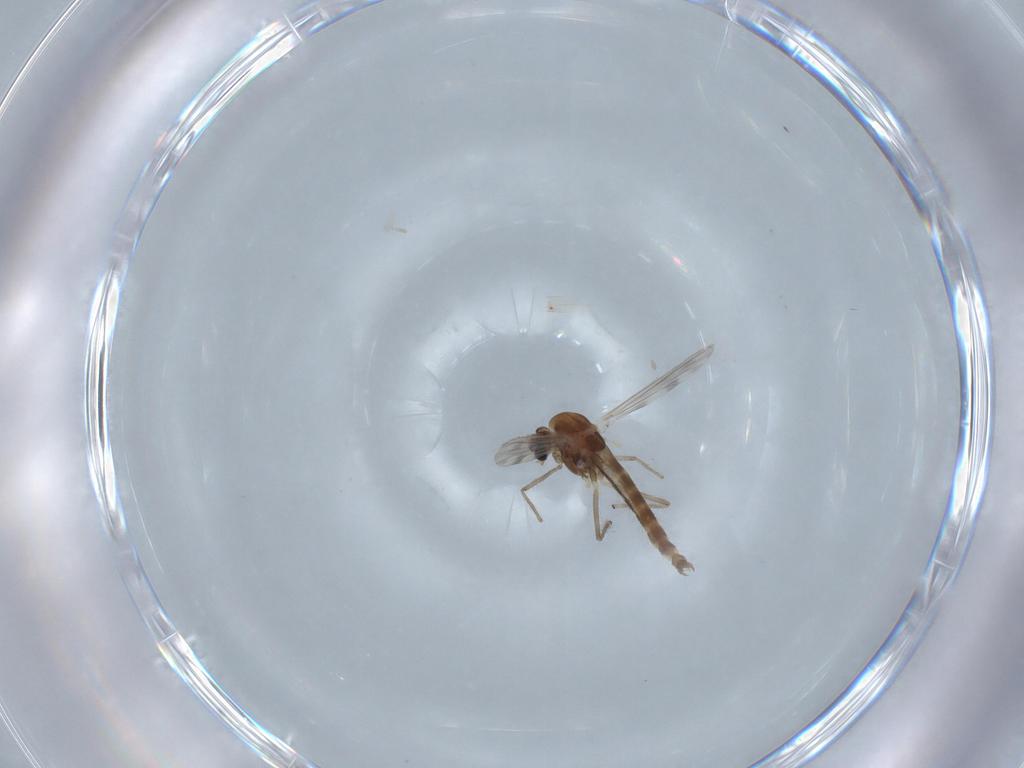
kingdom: Animalia
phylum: Arthropoda
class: Insecta
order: Diptera
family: Chironomidae
